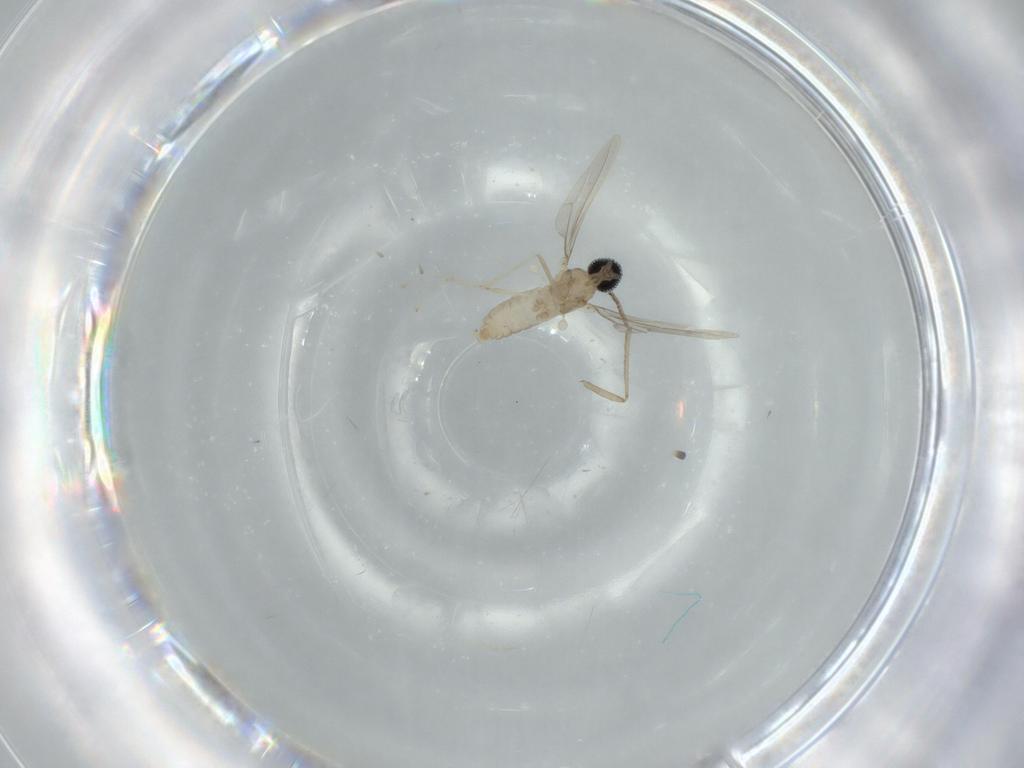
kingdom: Animalia
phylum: Arthropoda
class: Insecta
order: Diptera
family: Cecidomyiidae
